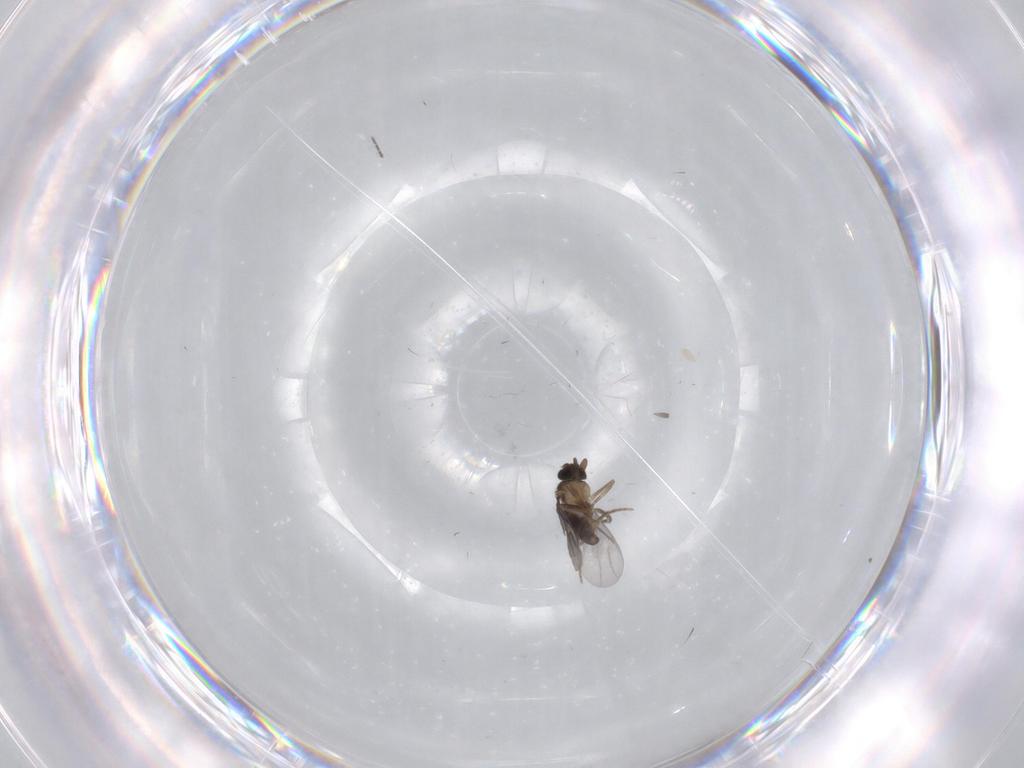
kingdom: Animalia
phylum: Arthropoda
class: Insecta
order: Diptera
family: Sciaridae
